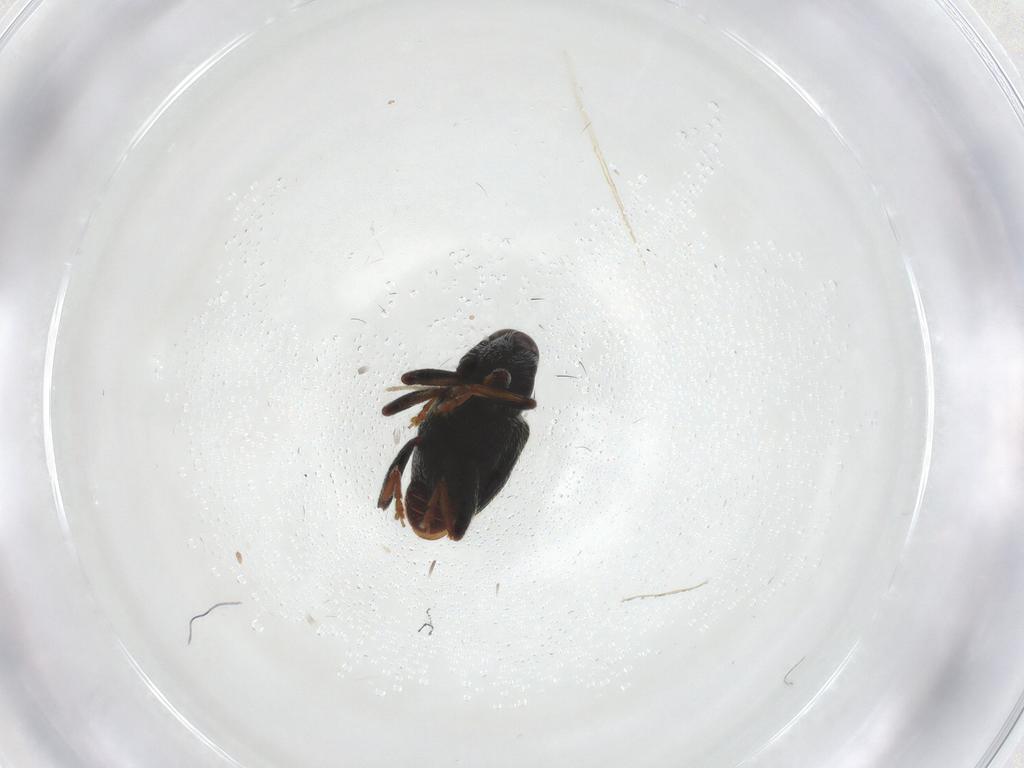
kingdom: Animalia
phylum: Arthropoda
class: Insecta
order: Coleoptera
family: Curculionidae
